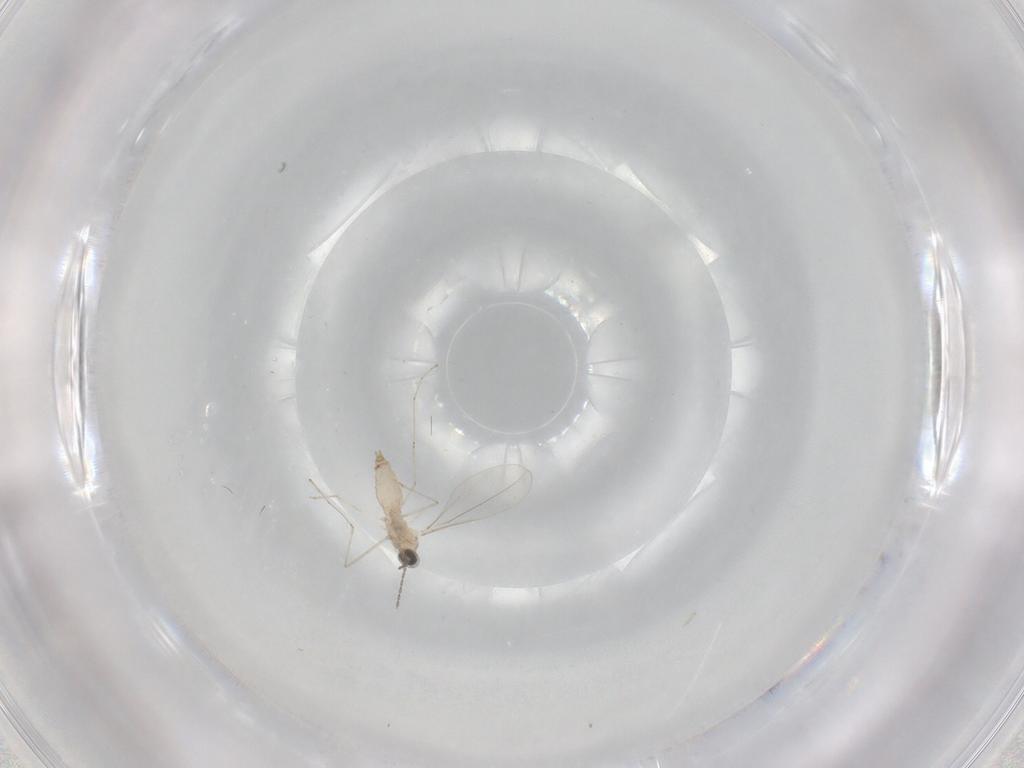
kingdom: Animalia
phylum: Arthropoda
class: Insecta
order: Diptera
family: Cecidomyiidae
